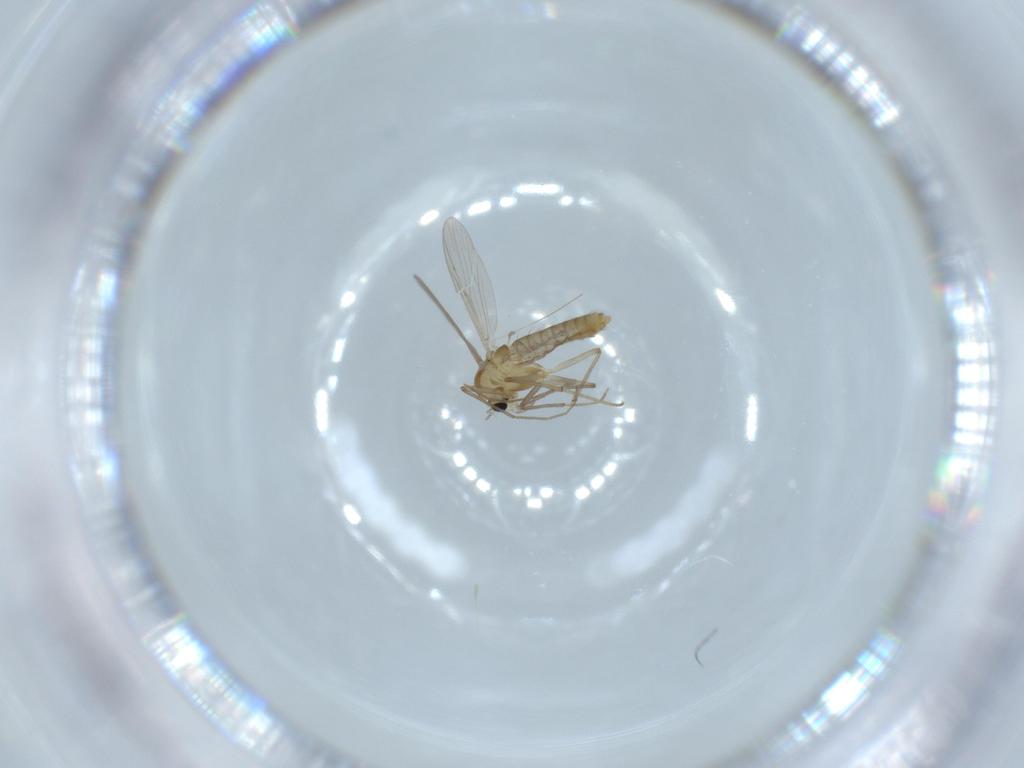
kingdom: Animalia
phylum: Arthropoda
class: Insecta
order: Diptera
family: Chironomidae
